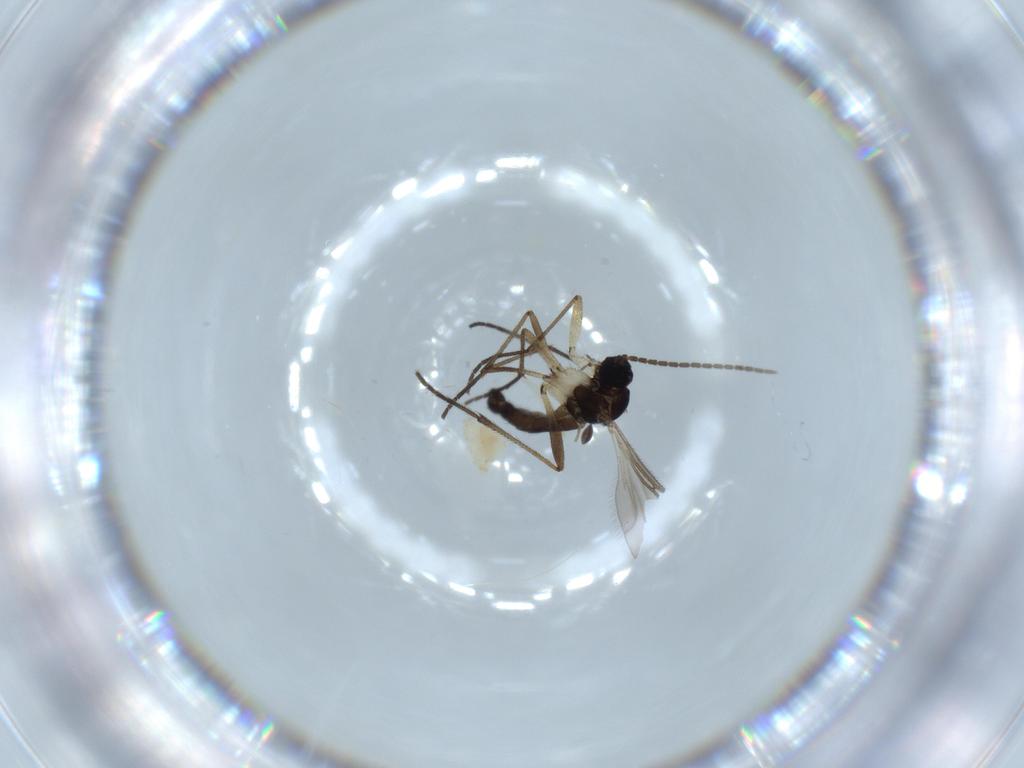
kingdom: Animalia
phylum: Arthropoda
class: Insecta
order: Diptera
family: Sciaridae
